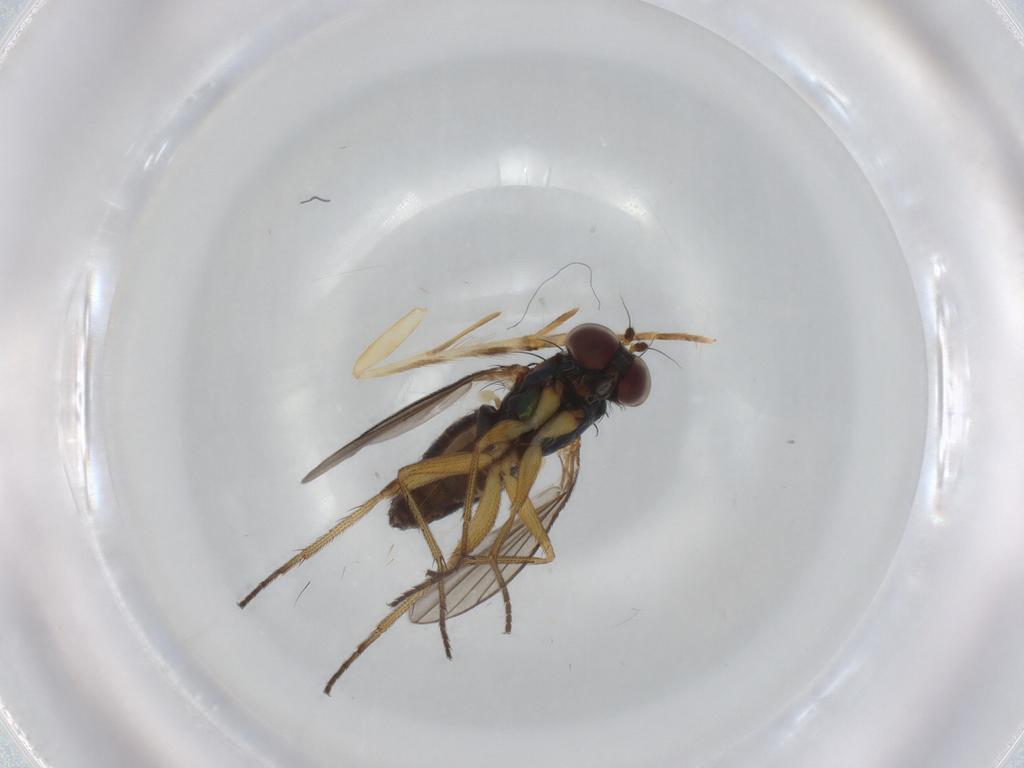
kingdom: Animalia
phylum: Arthropoda
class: Insecta
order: Diptera
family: Dolichopodidae
